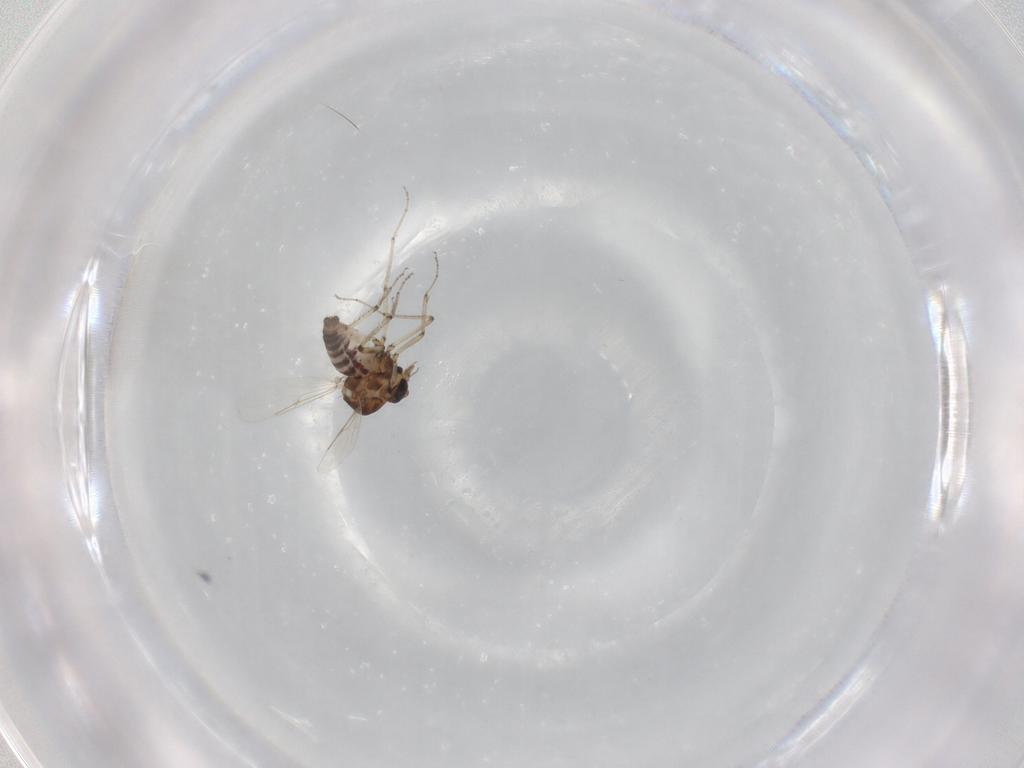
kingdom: Animalia
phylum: Arthropoda
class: Insecta
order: Diptera
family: Ceratopogonidae
